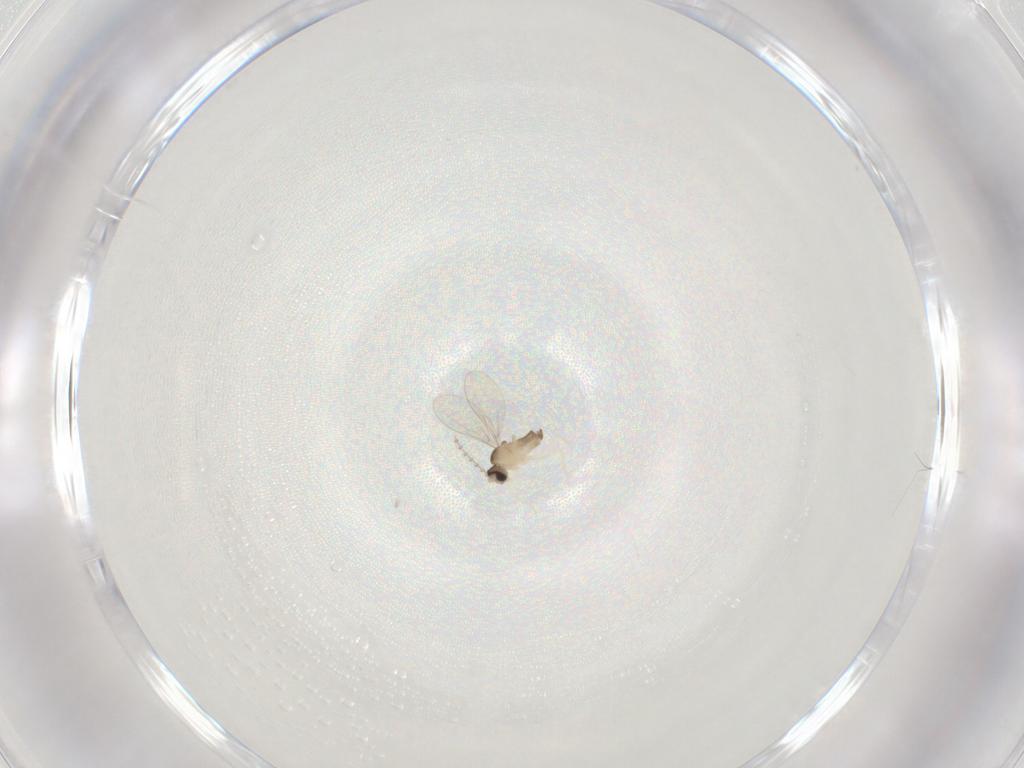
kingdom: Animalia
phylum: Arthropoda
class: Insecta
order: Diptera
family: Cecidomyiidae
